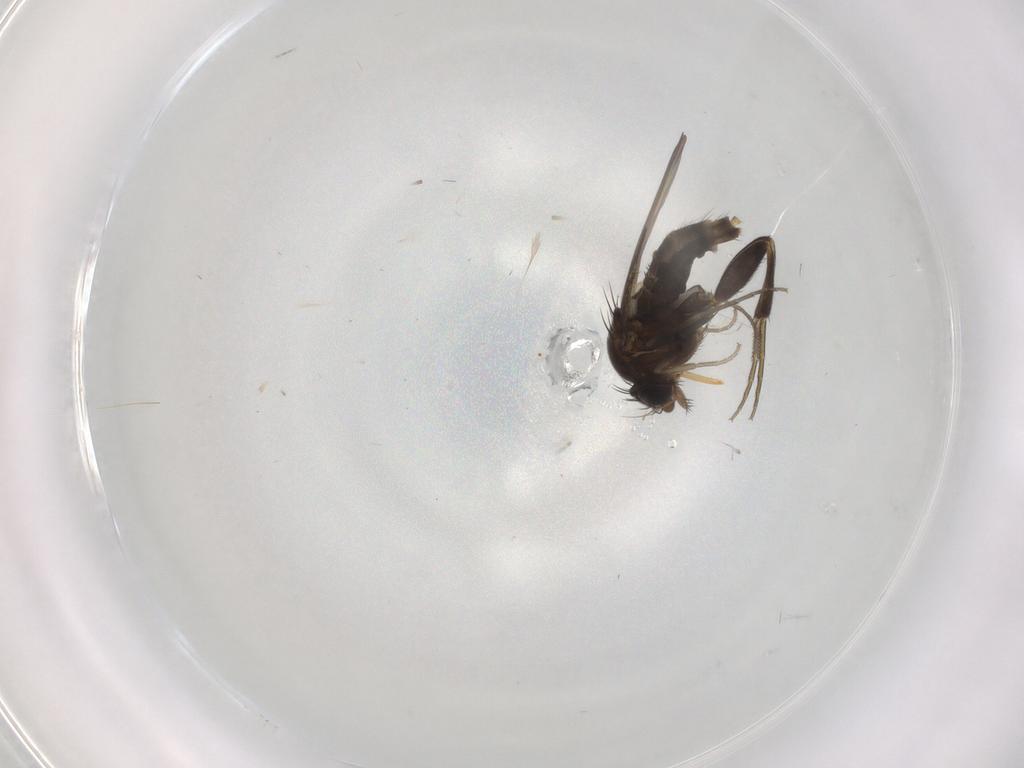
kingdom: Animalia
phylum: Arthropoda
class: Insecta
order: Diptera
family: Phoridae
